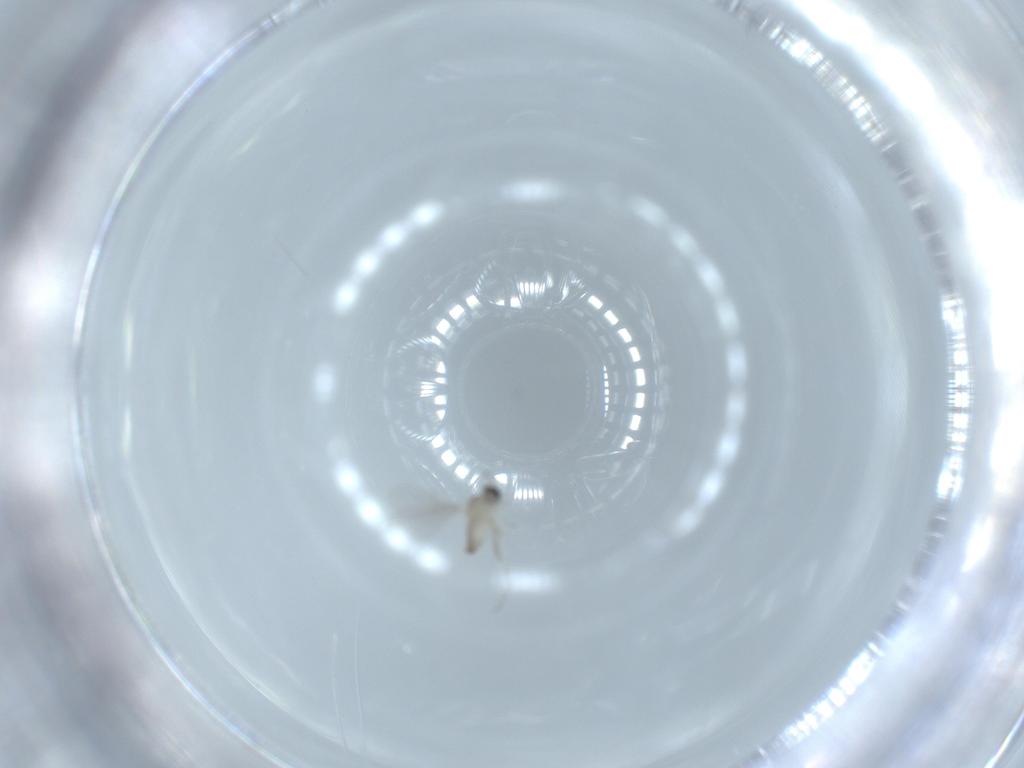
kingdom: Animalia
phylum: Arthropoda
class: Insecta
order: Diptera
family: Cecidomyiidae
